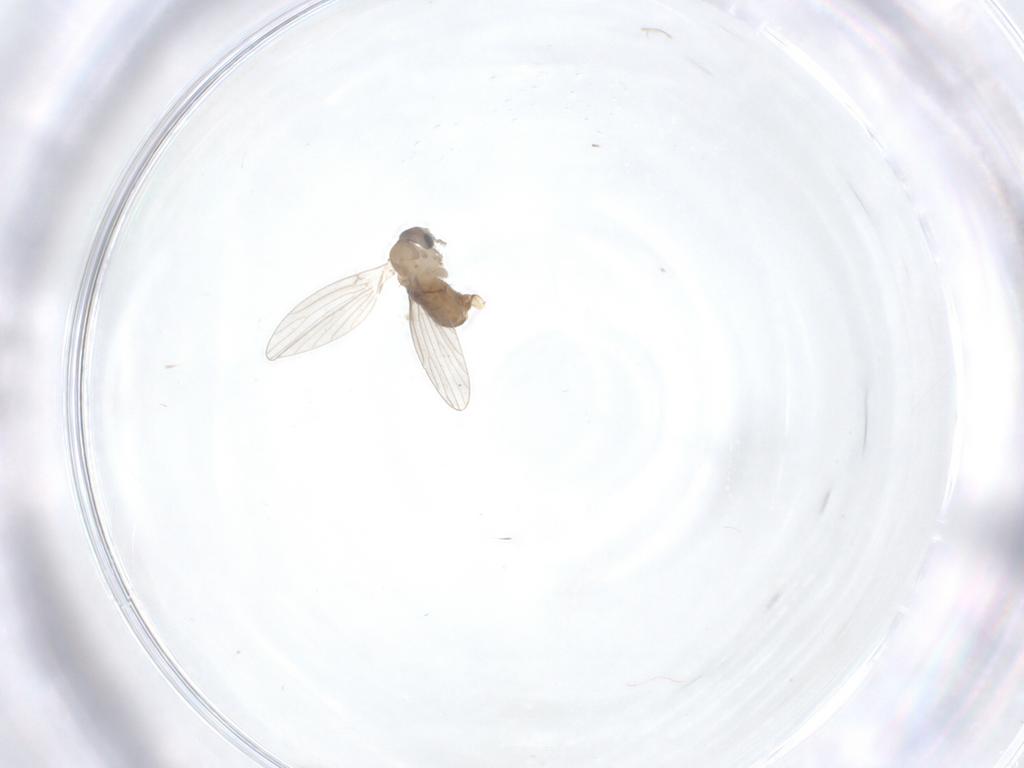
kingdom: Animalia
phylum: Arthropoda
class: Insecta
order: Diptera
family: Psychodidae
